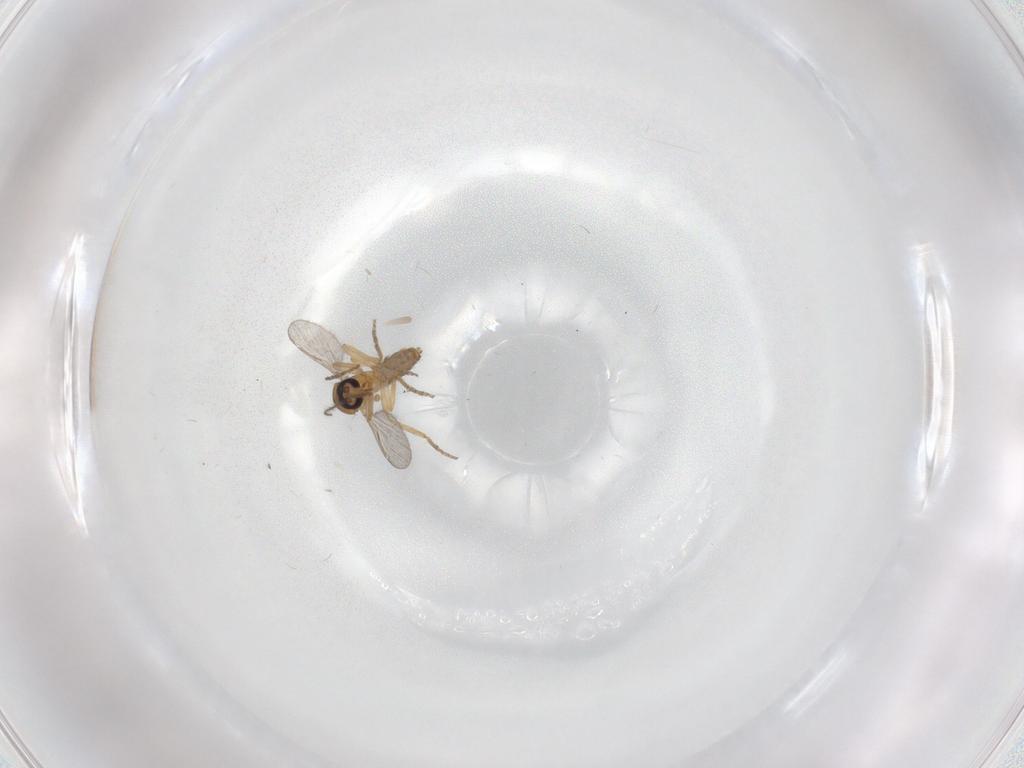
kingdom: Animalia
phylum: Arthropoda
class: Insecta
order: Diptera
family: Ceratopogonidae
